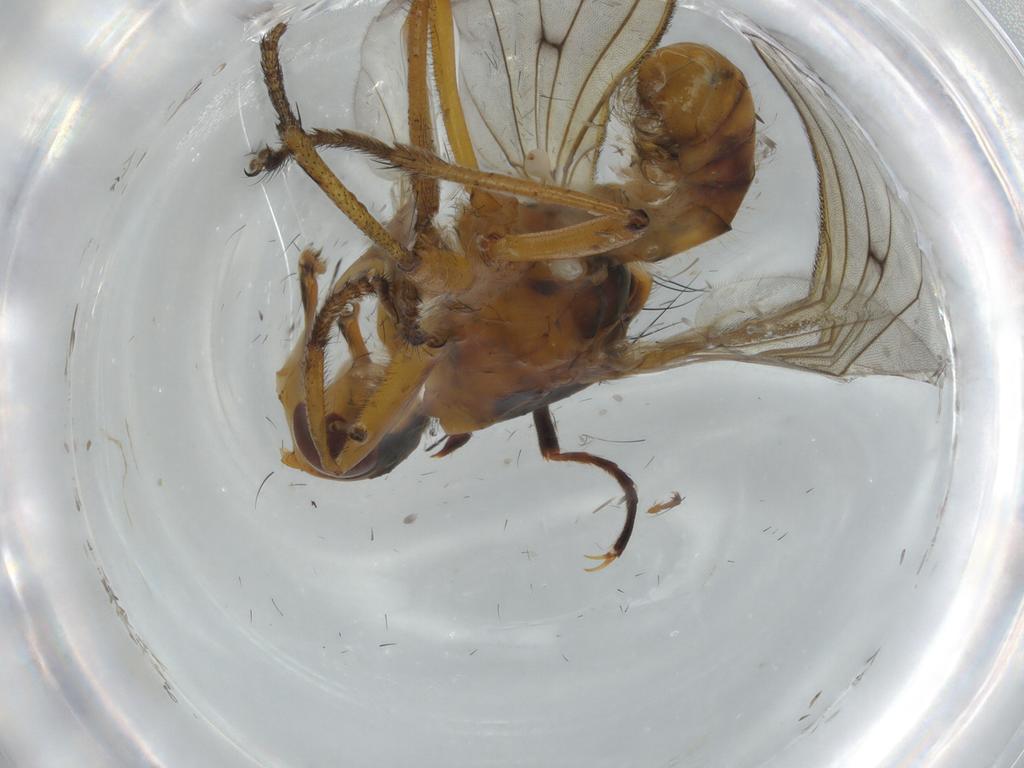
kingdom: Animalia
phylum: Arthropoda
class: Insecta
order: Diptera
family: Scathophagidae
